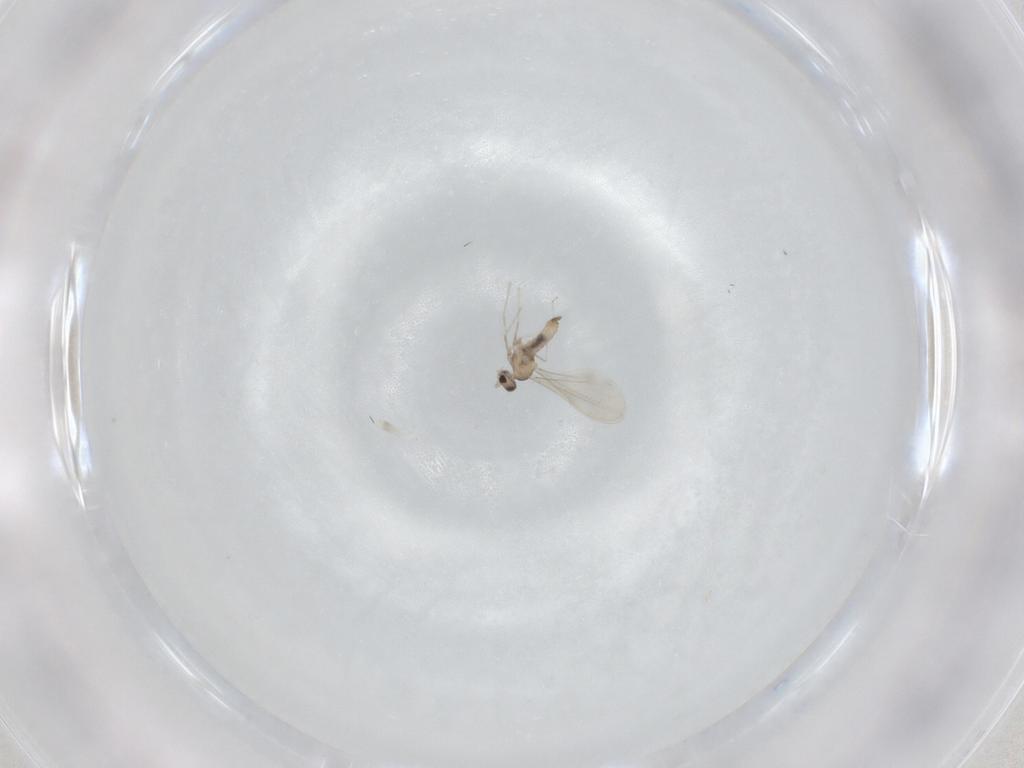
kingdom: Animalia
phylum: Arthropoda
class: Insecta
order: Diptera
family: Cecidomyiidae
